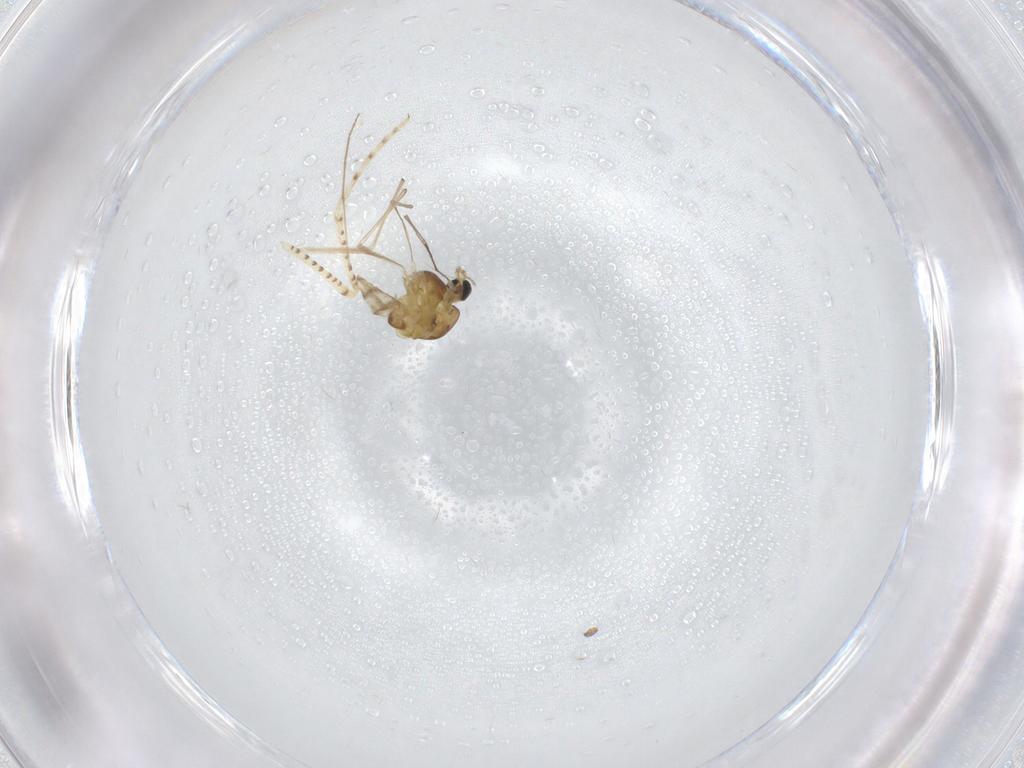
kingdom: Animalia
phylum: Arthropoda
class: Insecta
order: Diptera
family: Chironomidae
